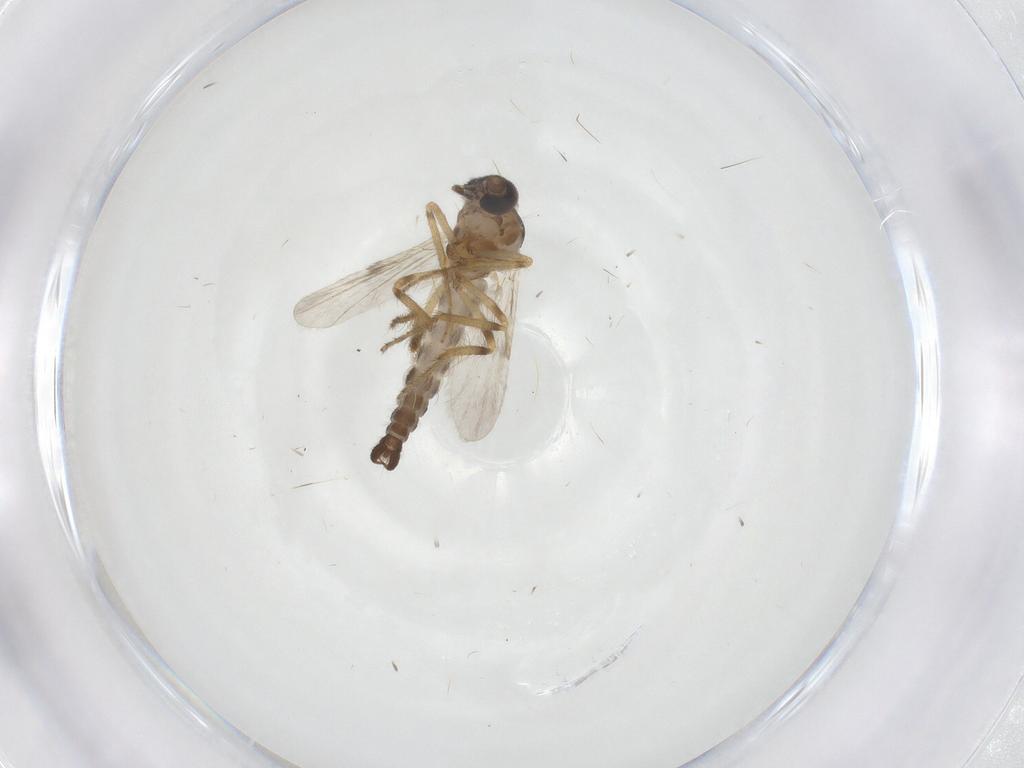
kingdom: Animalia
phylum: Arthropoda
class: Insecta
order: Diptera
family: Ceratopogonidae
